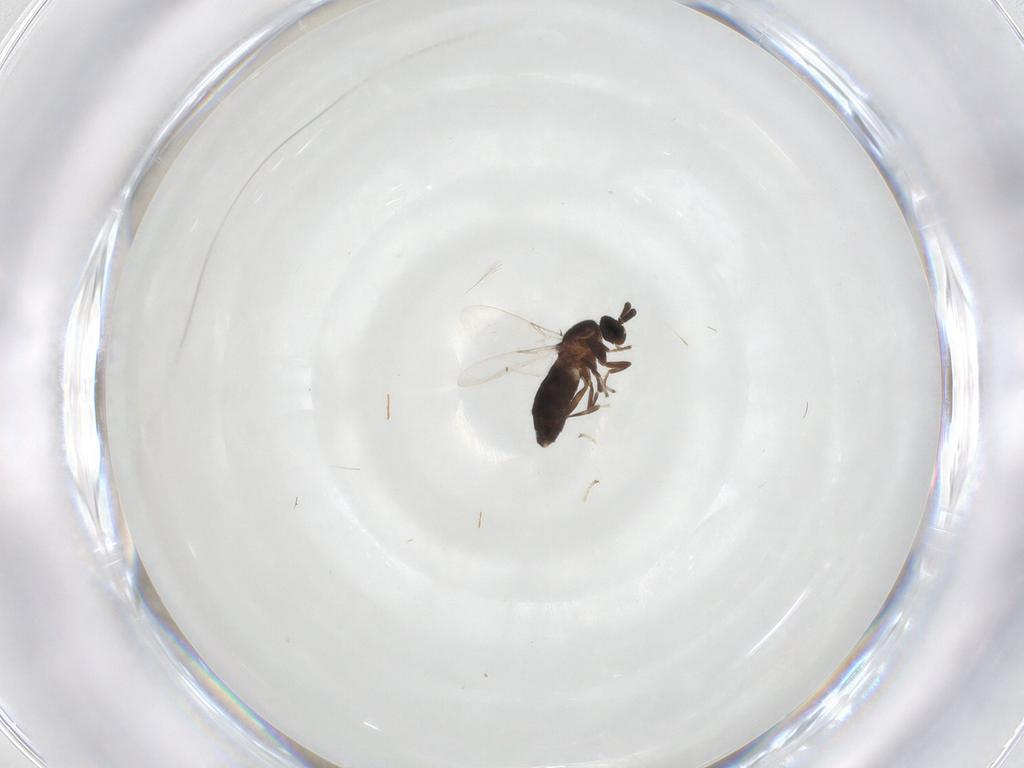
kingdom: Animalia
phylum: Arthropoda
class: Insecta
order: Diptera
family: Scatopsidae
